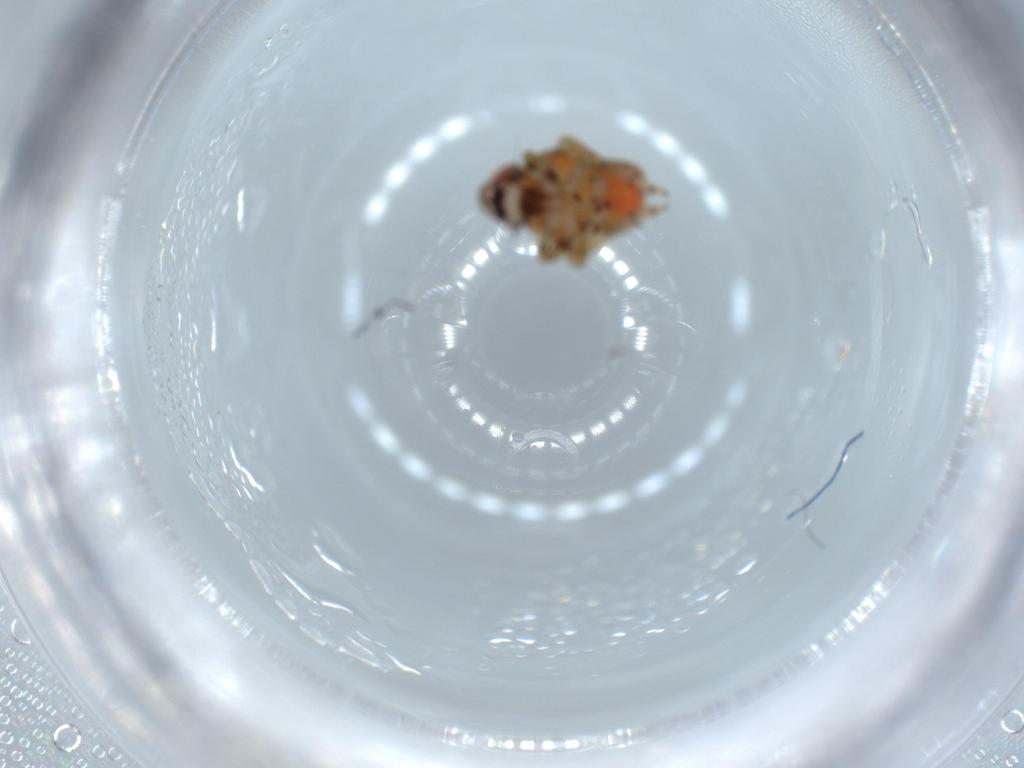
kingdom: Animalia
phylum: Arthropoda
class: Insecta
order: Hemiptera
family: Issidae
